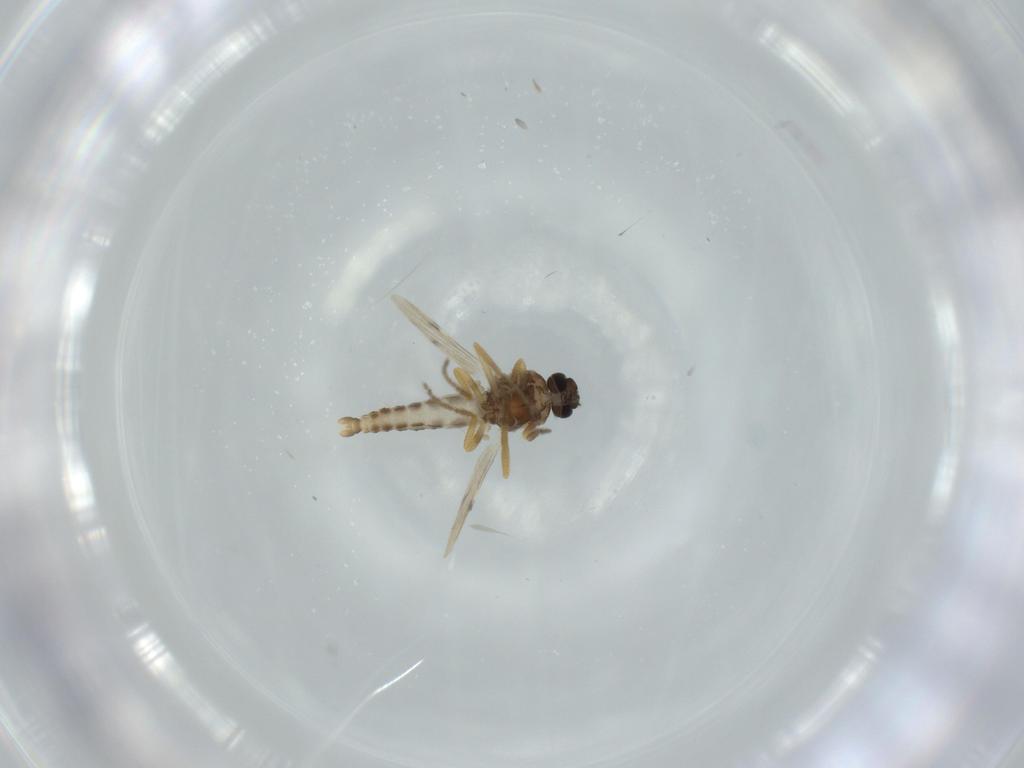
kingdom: Animalia
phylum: Arthropoda
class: Insecta
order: Diptera
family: Ceratopogonidae
